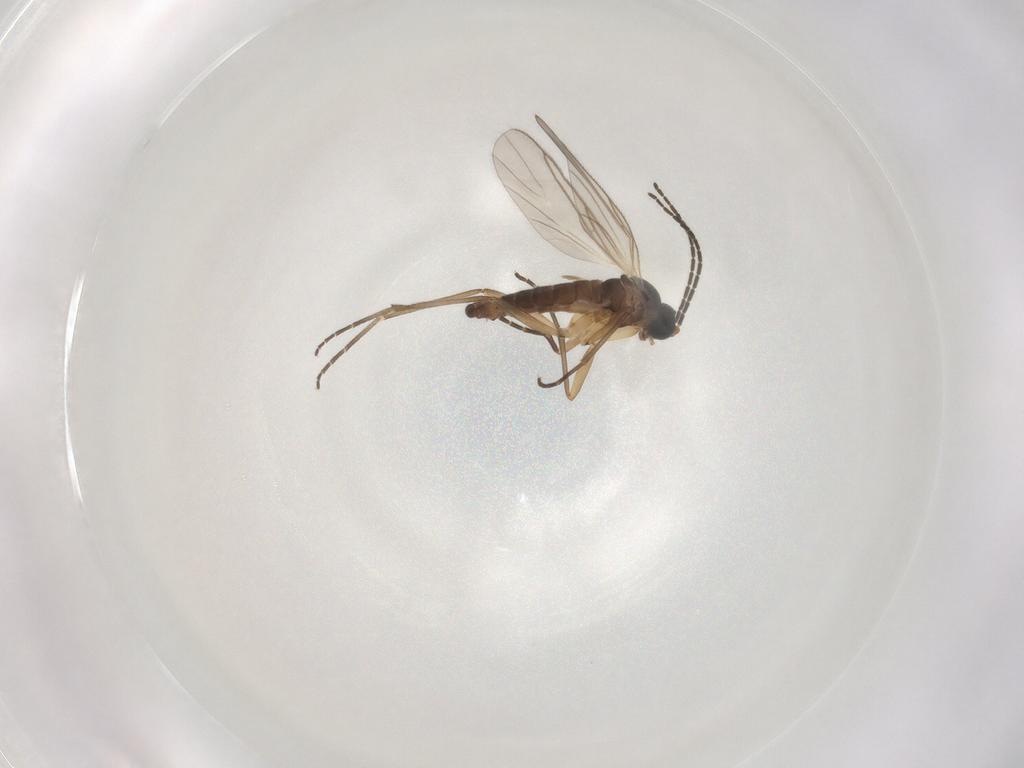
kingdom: Animalia
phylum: Arthropoda
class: Insecta
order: Diptera
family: Sciaridae
